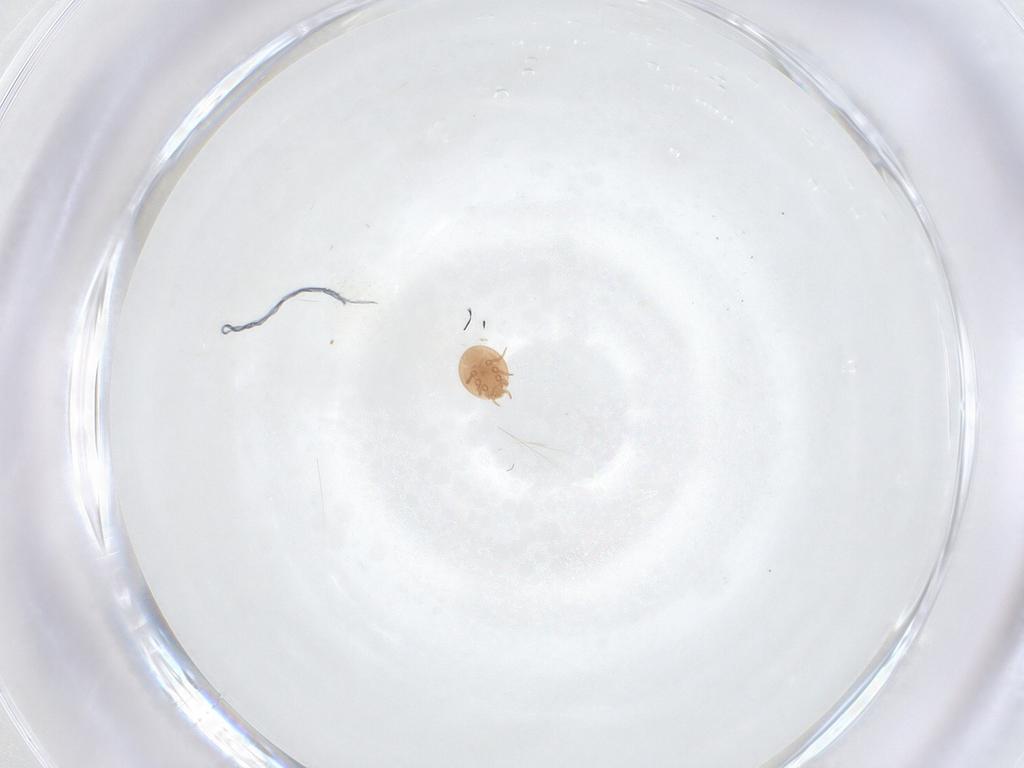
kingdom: Animalia
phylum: Arthropoda
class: Arachnida
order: Mesostigmata
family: Trematuridae
